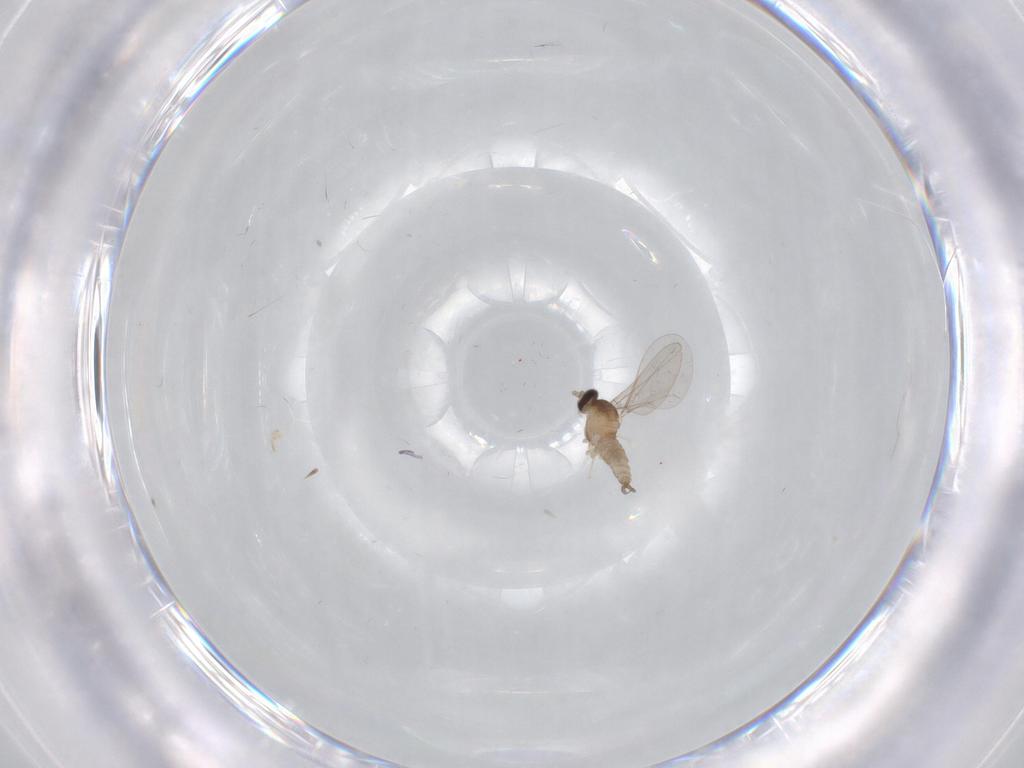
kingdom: Animalia
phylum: Arthropoda
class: Insecta
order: Diptera
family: Cecidomyiidae
